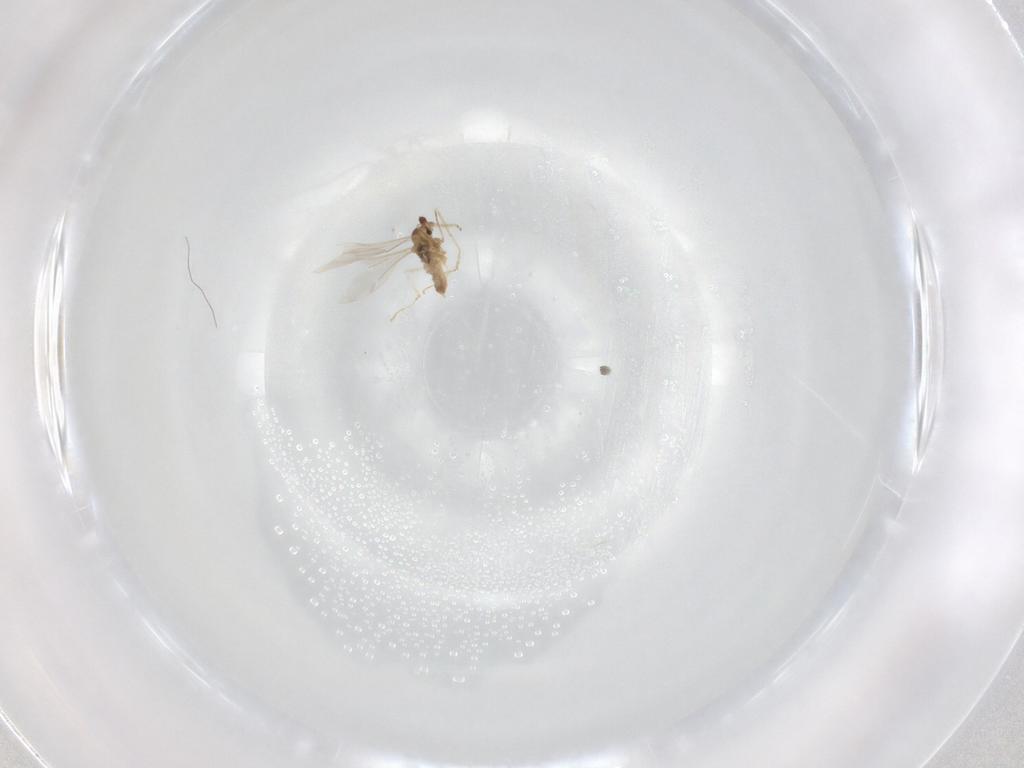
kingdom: Animalia
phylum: Arthropoda
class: Insecta
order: Diptera
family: Cecidomyiidae
